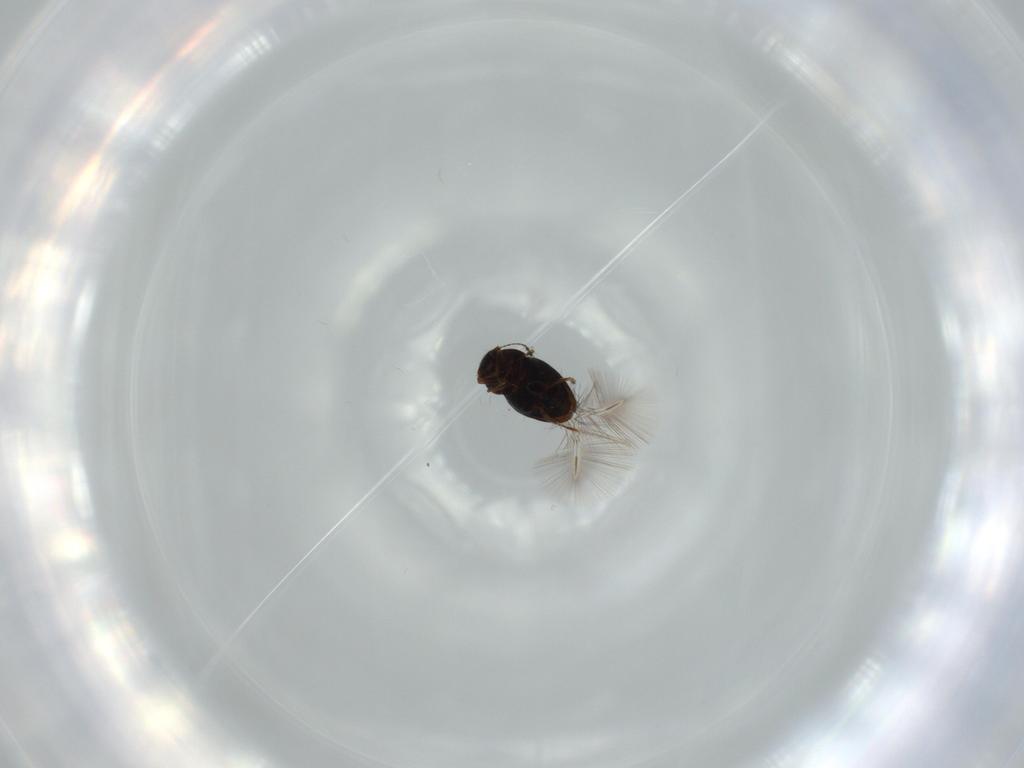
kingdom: Animalia
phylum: Arthropoda
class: Insecta
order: Coleoptera
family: Ptiliidae
